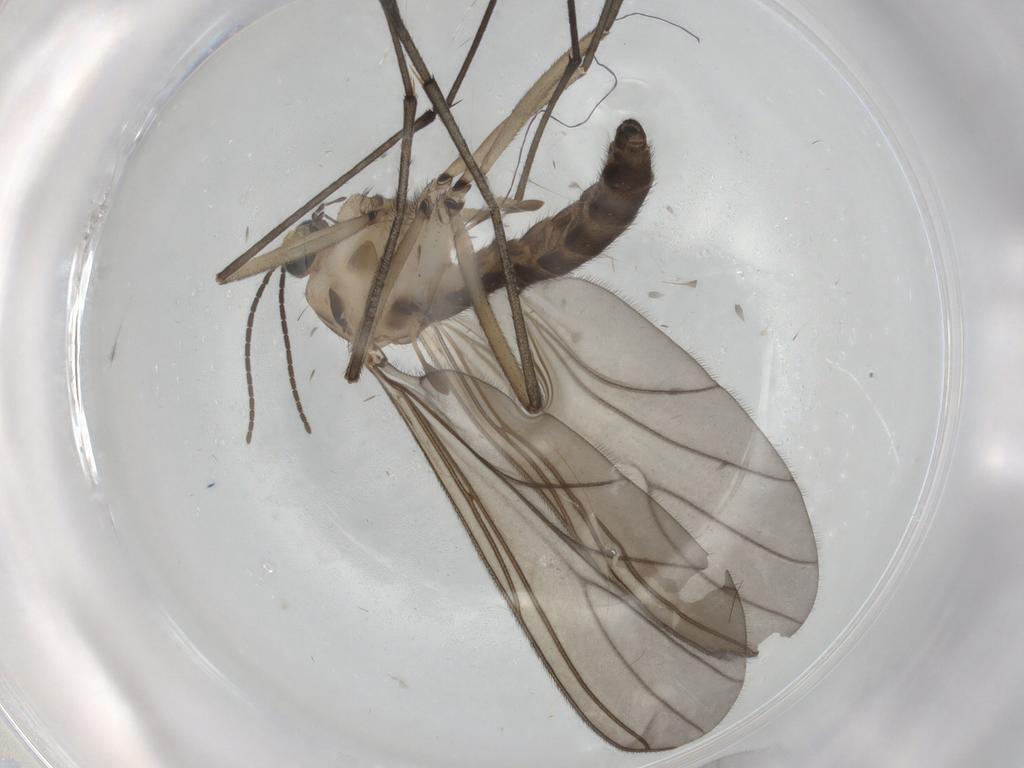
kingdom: Animalia
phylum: Arthropoda
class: Insecta
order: Diptera
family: Sciaridae
